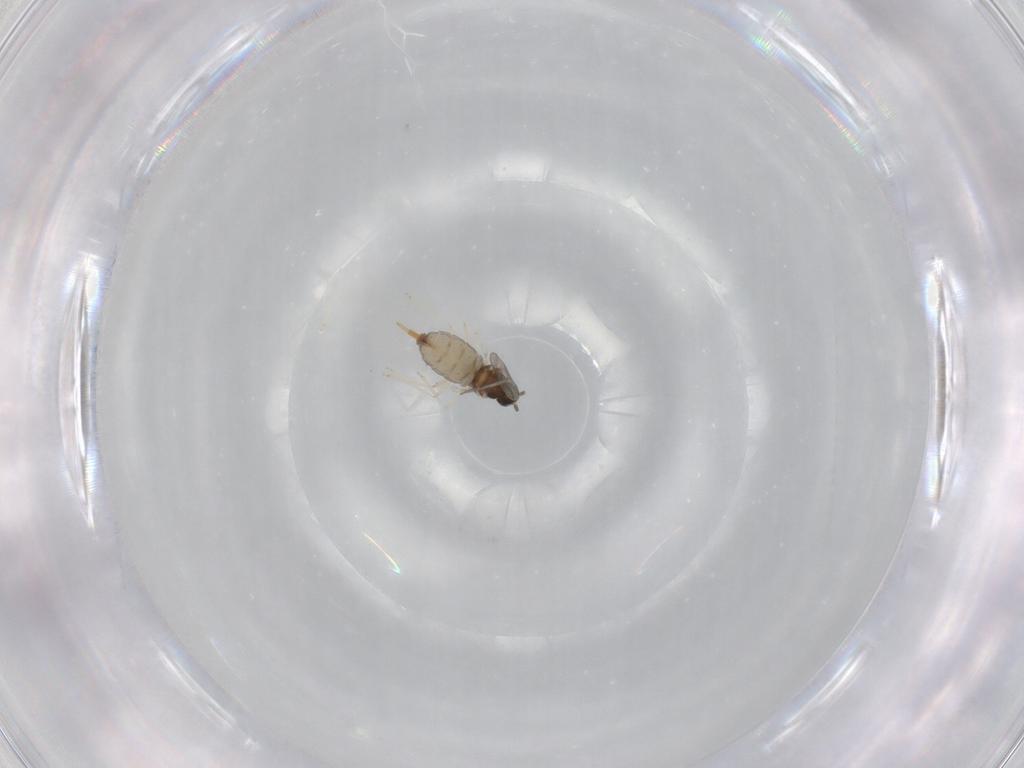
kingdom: Animalia
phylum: Arthropoda
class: Insecta
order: Diptera
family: Cecidomyiidae
